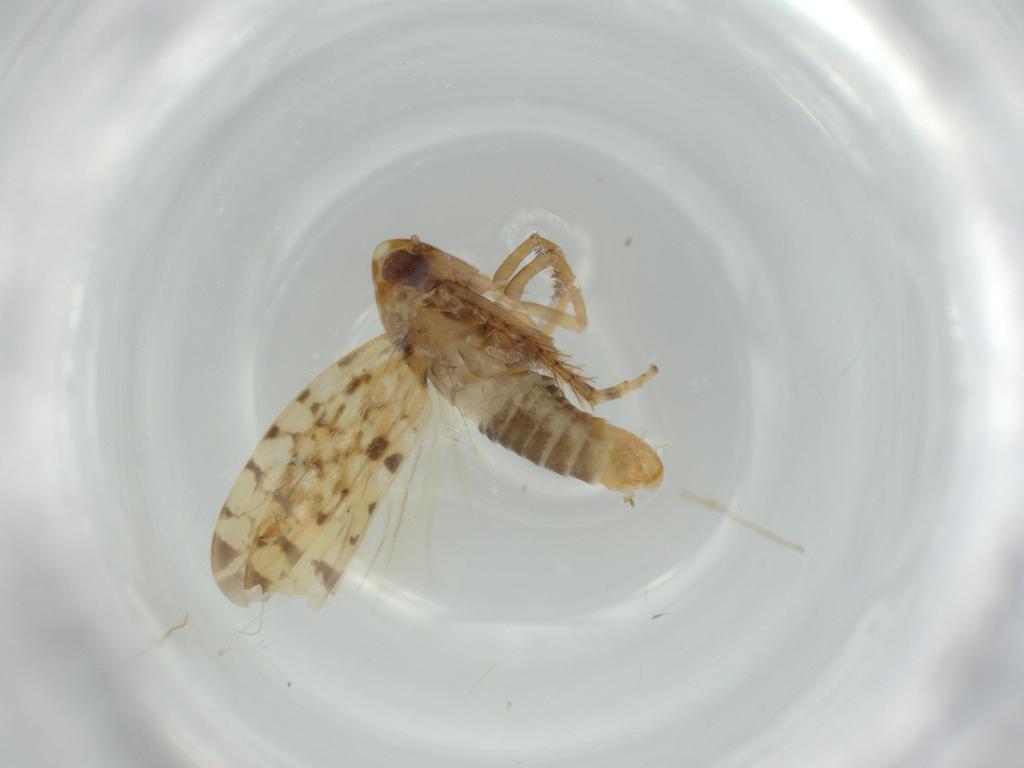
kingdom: Animalia
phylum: Arthropoda
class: Insecta
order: Hemiptera
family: Cicadellidae
